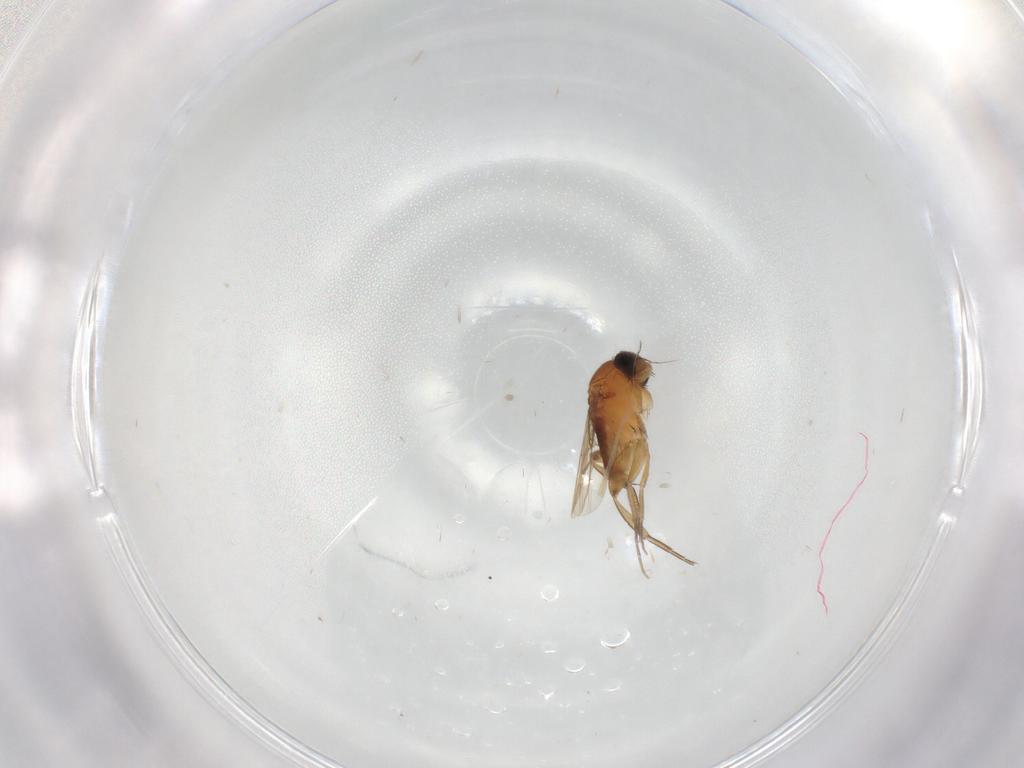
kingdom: Animalia
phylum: Arthropoda
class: Insecta
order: Diptera
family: Phoridae
